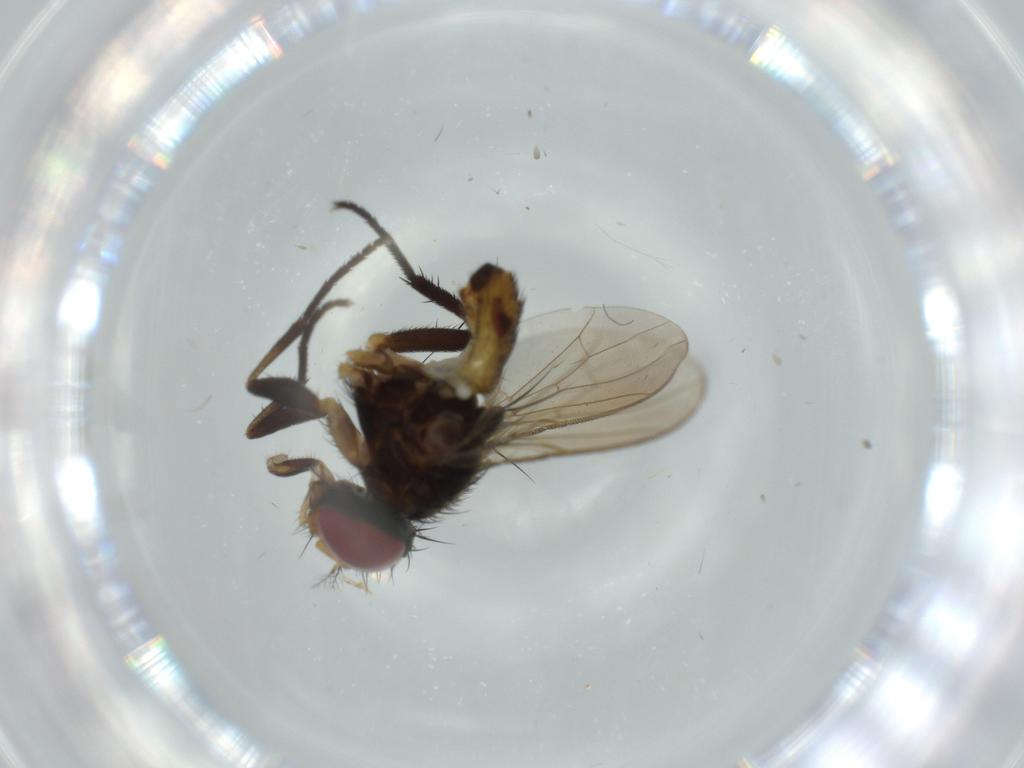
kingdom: Animalia
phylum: Arthropoda
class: Insecta
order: Diptera
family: Anthomyiidae
